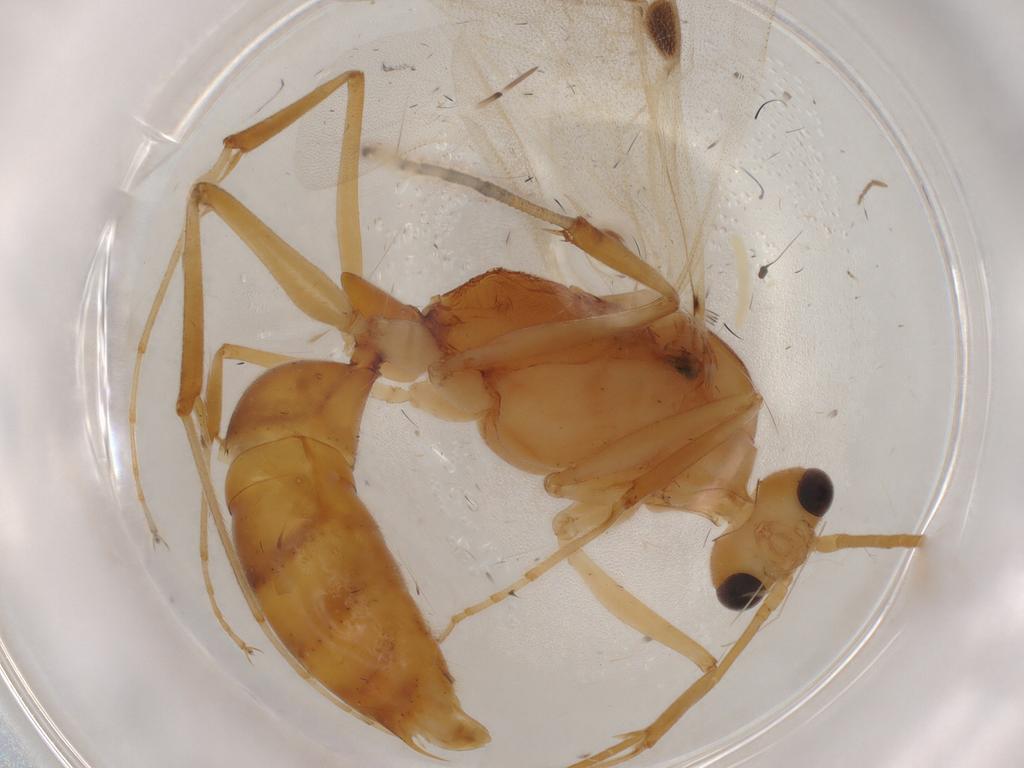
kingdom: Animalia
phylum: Arthropoda
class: Insecta
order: Hymenoptera
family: Formicidae
